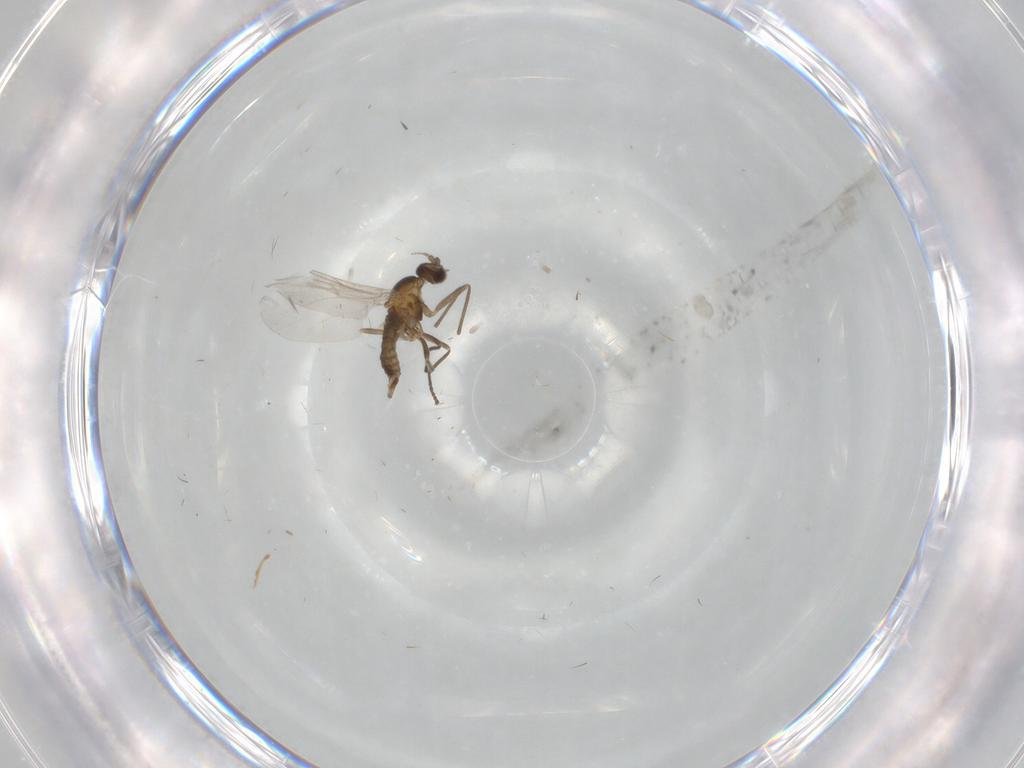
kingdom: Animalia
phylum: Arthropoda
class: Insecta
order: Diptera
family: Cecidomyiidae
